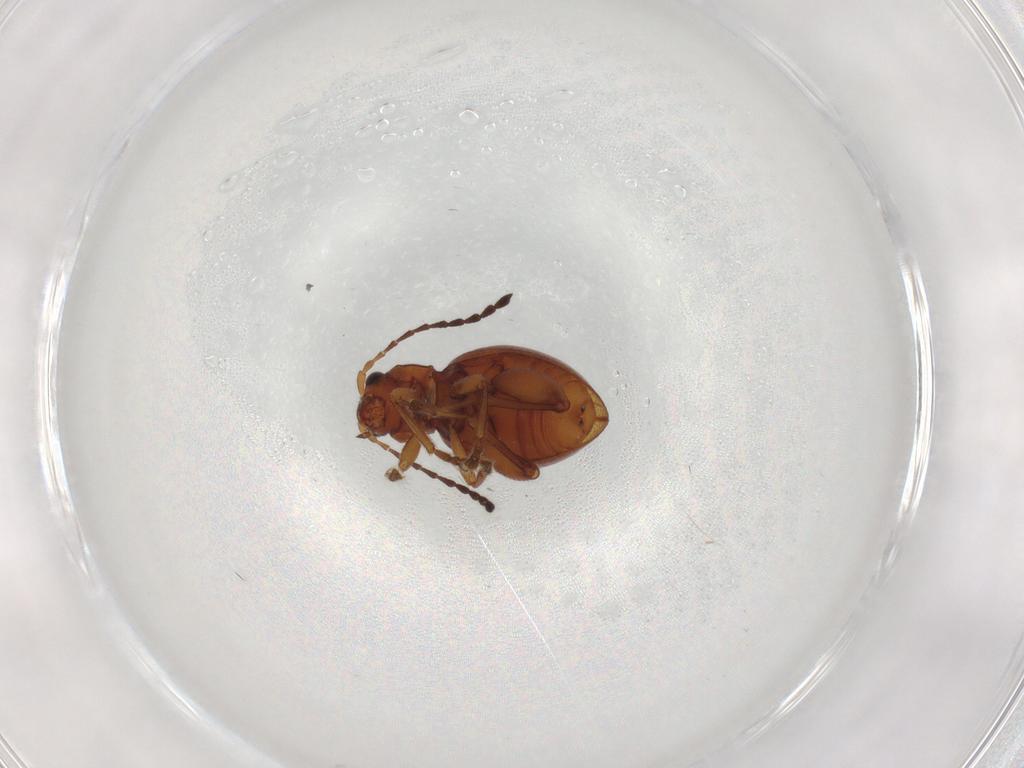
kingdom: Animalia
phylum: Arthropoda
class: Insecta
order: Coleoptera
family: Chrysomelidae
